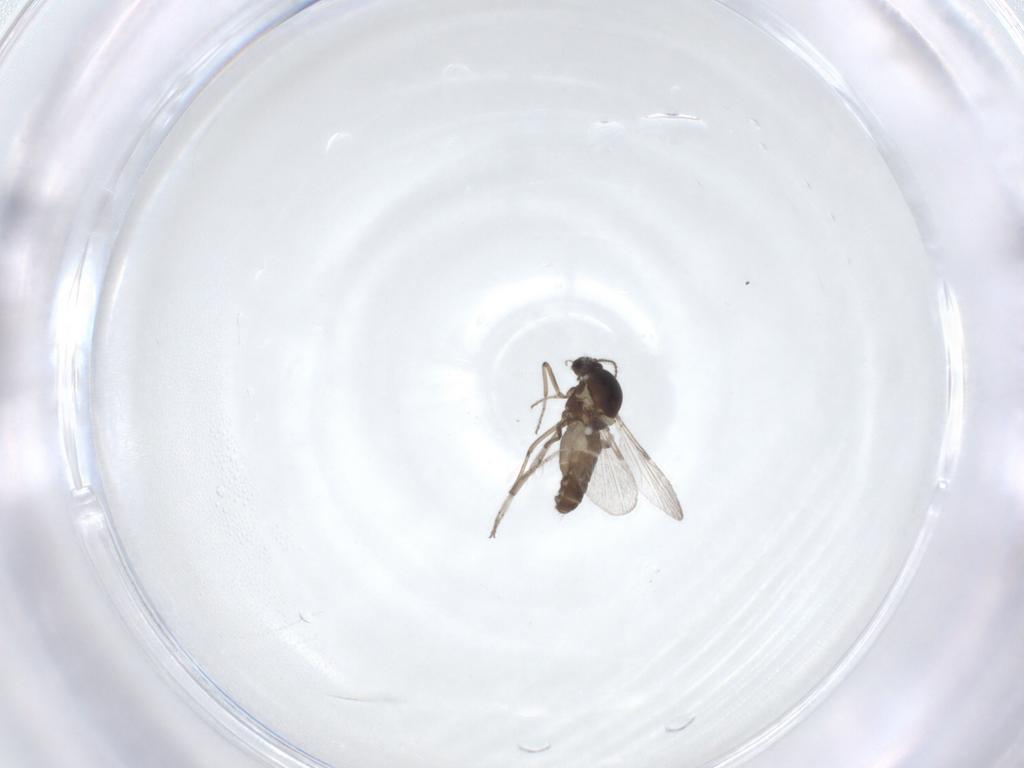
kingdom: Animalia
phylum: Arthropoda
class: Insecta
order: Diptera
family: Ceratopogonidae
